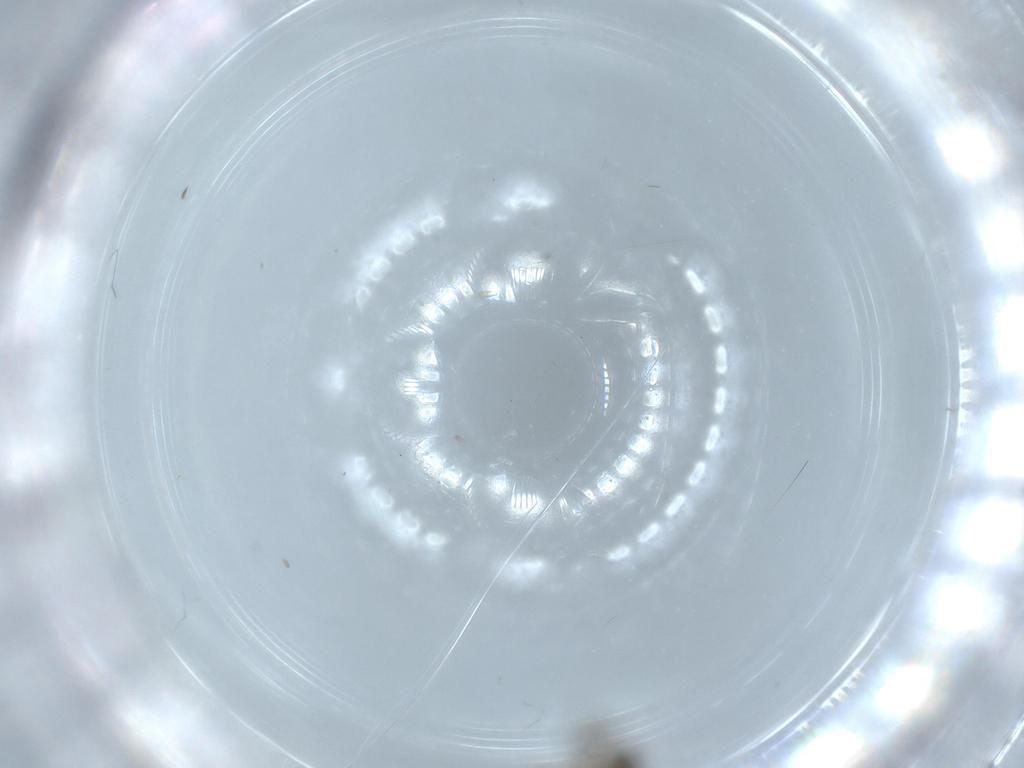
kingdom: Animalia
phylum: Arthropoda
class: Insecta
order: Diptera
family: Cecidomyiidae
